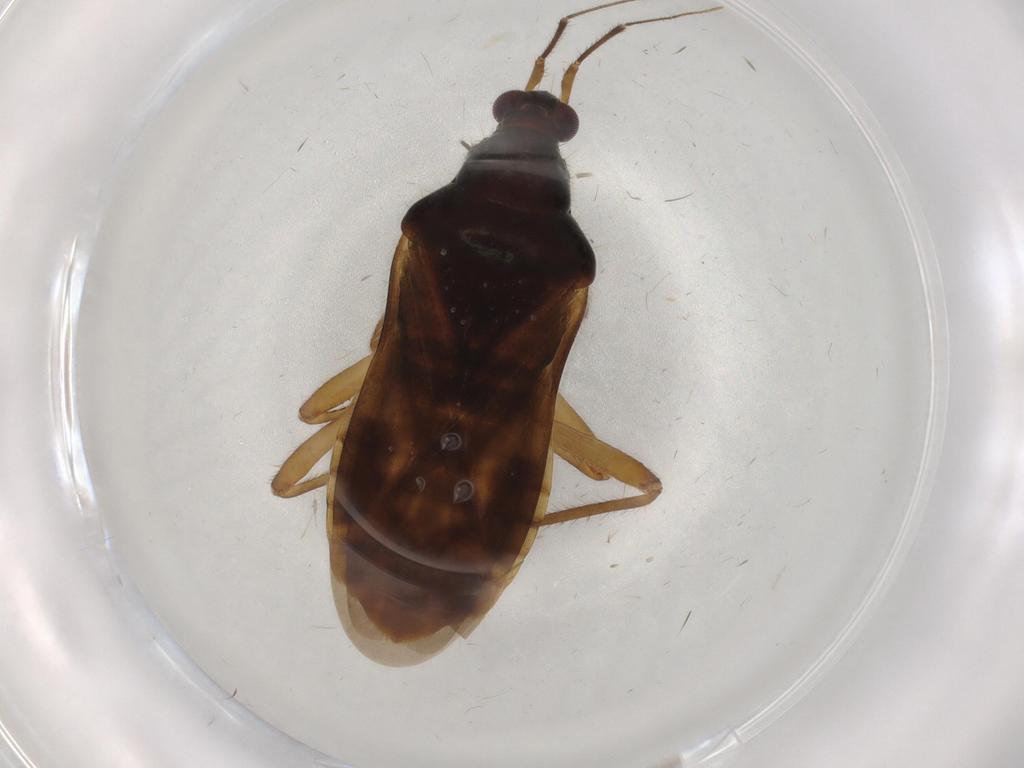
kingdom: Animalia
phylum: Arthropoda
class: Insecta
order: Hemiptera
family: Nabidae
